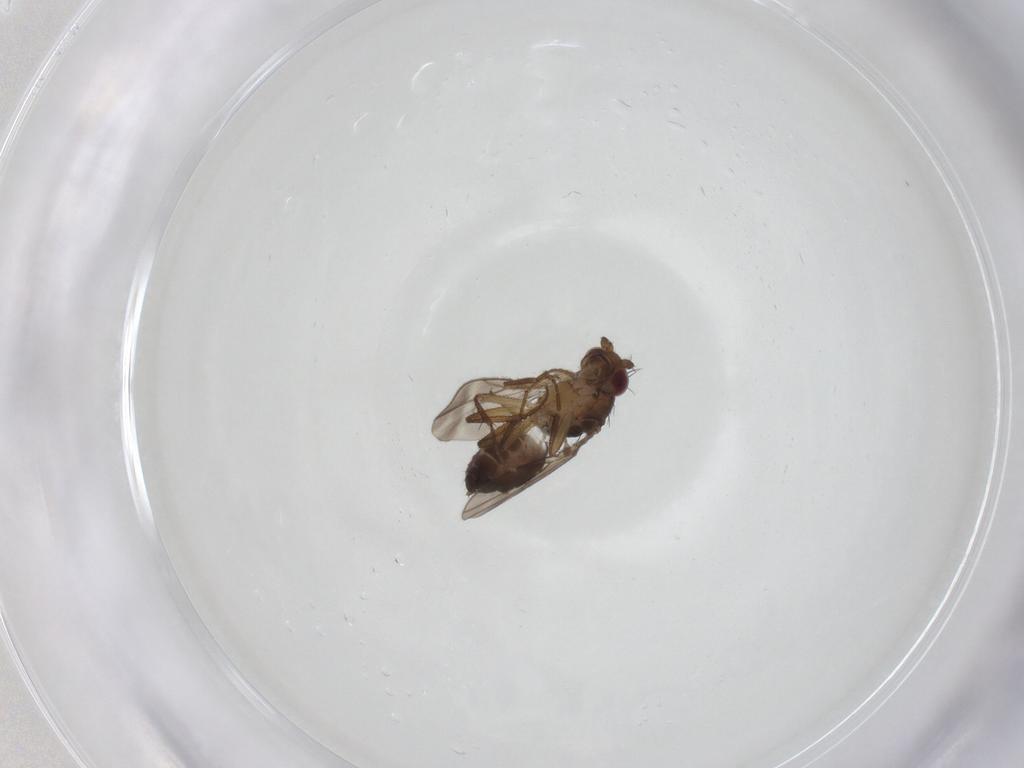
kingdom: Animalia
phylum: Arthropoda
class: Insecta
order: Diptera
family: Sphaeroceridae
